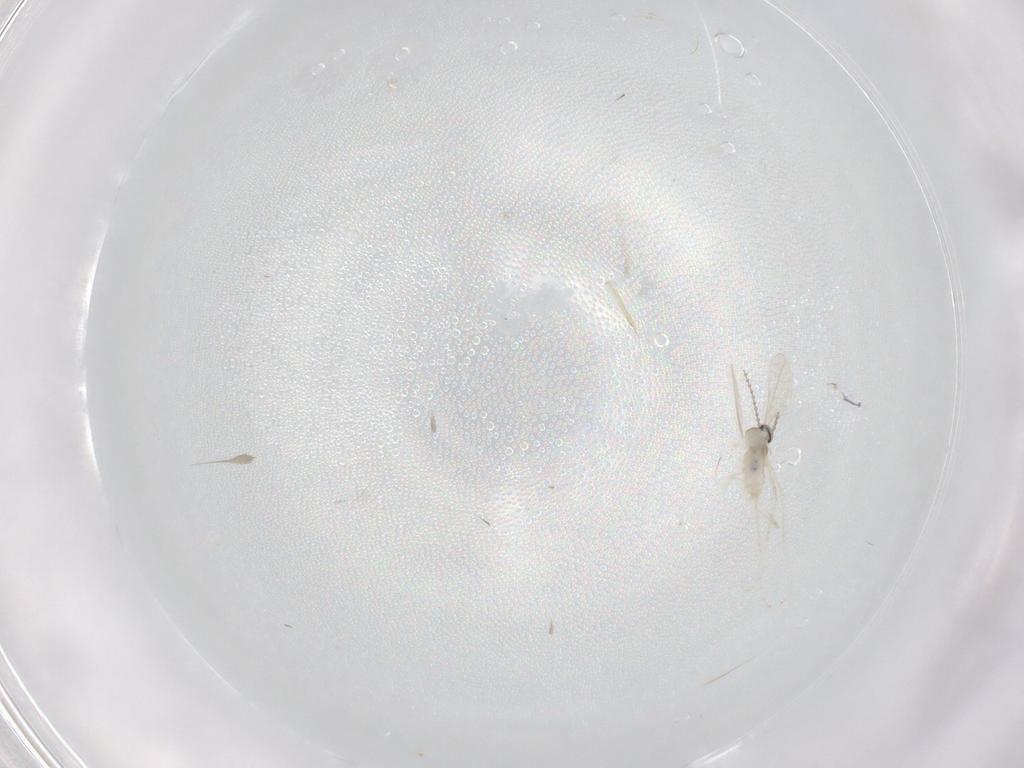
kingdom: Animalia
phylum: Arthropoda
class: Insecta
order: Diptera
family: Cecidomyiidae
